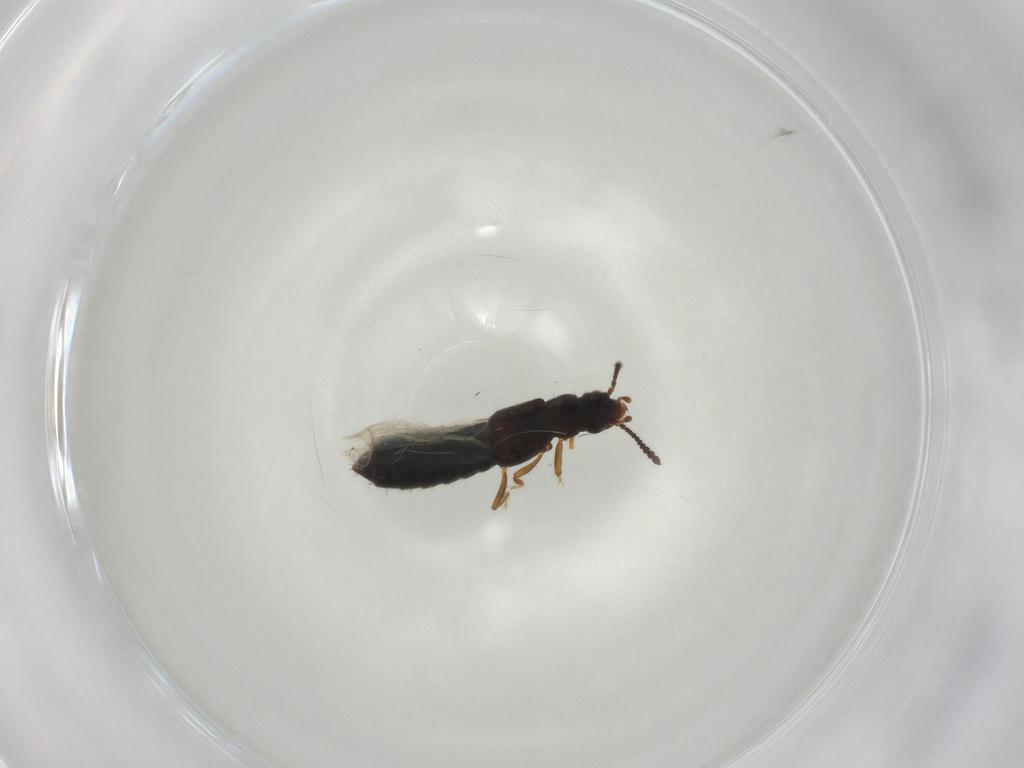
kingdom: Animalia
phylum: Arthropoda
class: Insecta
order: Coleoptera
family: Staphylinidae
